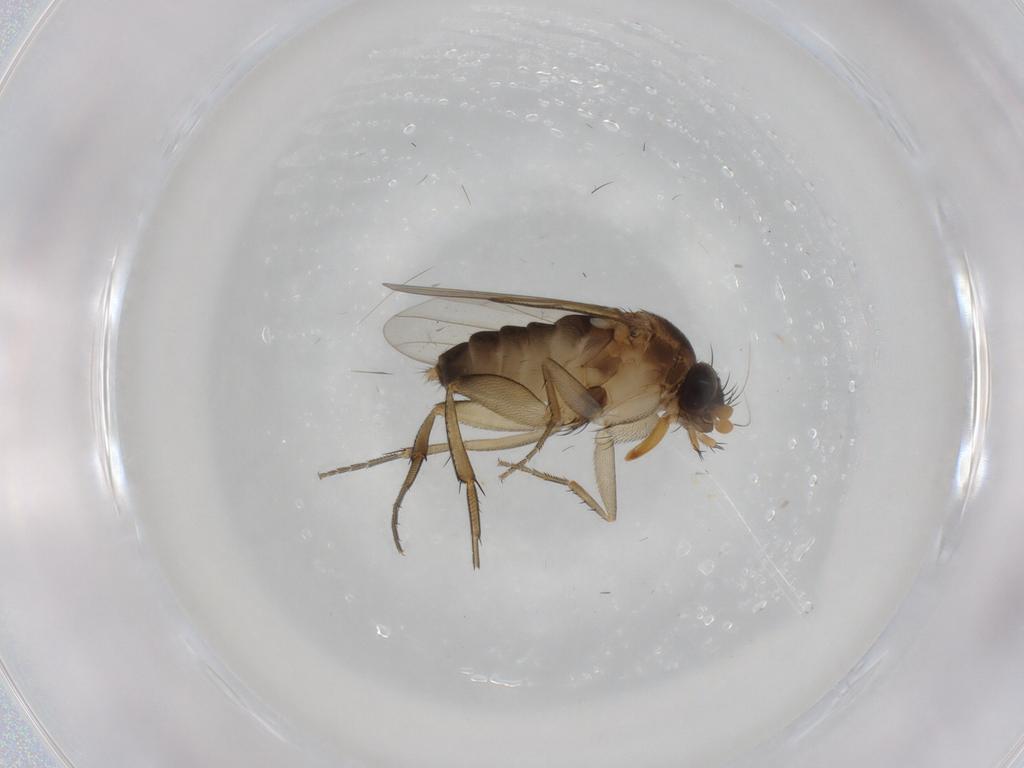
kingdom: Animalia
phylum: Arthropoda
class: Insecta
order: Diptera
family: Phoridae
